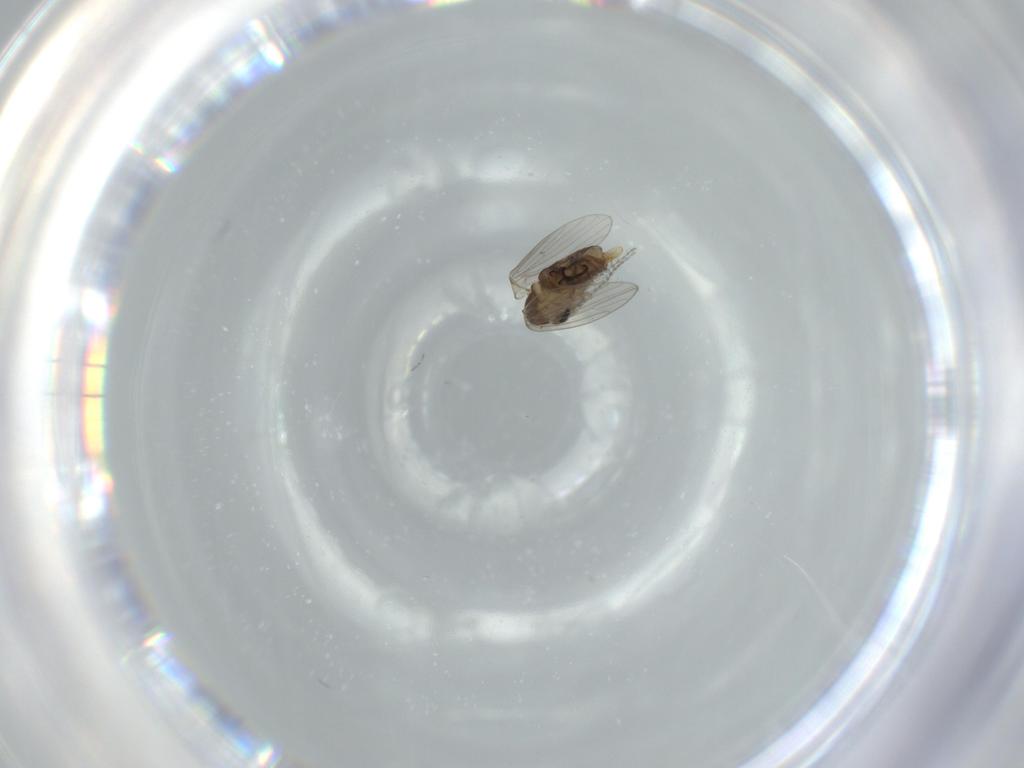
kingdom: Animalia
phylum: Arthropoda
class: Insecta
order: Diptera
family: Psychodidae
